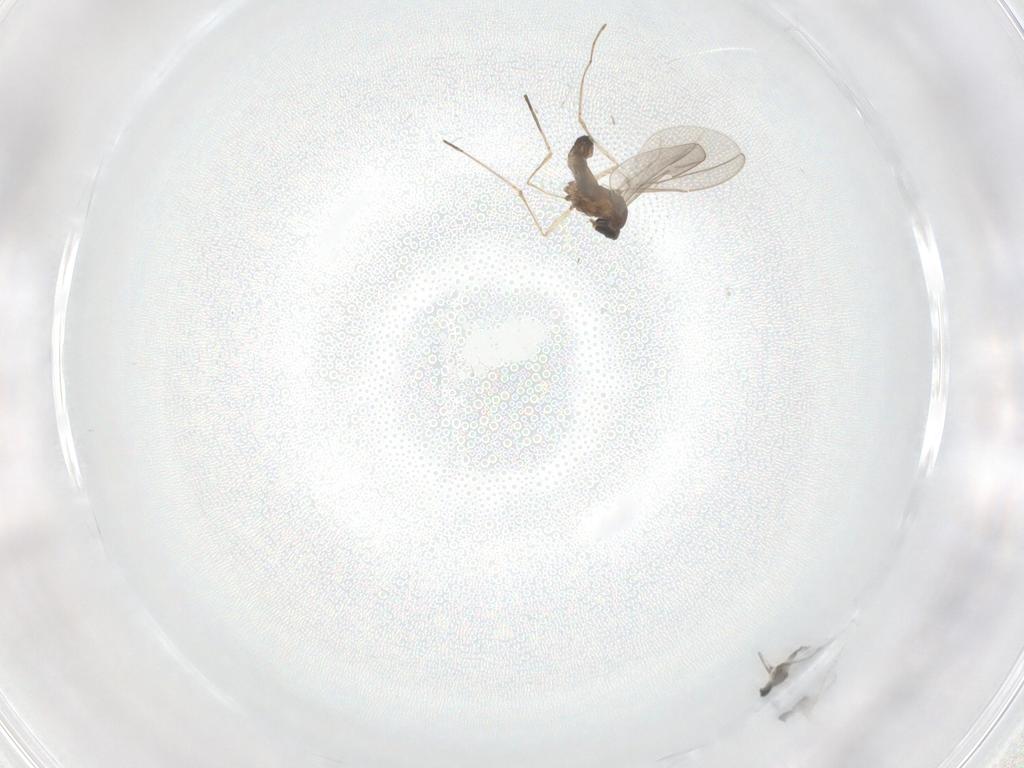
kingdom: Animalia
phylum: Arthropoda
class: Insecta
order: Diptera
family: Cecidomyiidae
